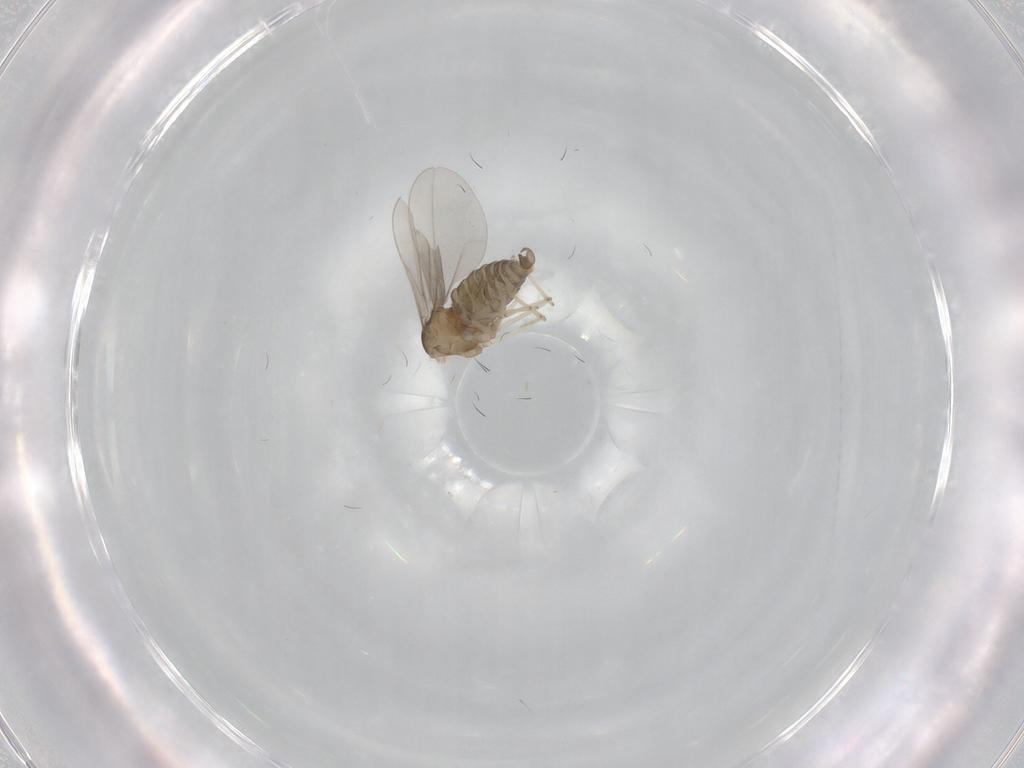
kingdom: Animalia
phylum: Arthropoda
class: Insecta
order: Diptera
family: Cecidomyiidae
